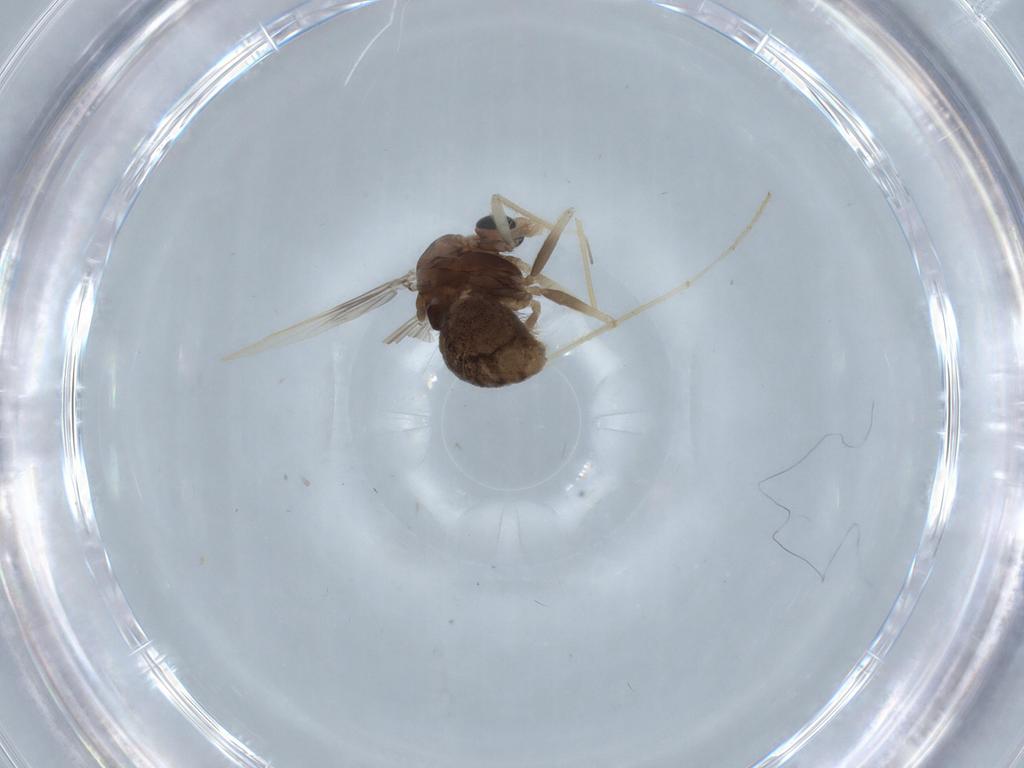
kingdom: Animalia
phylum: Arthropoda
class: Insecta
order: Diptera
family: Chironomidae
